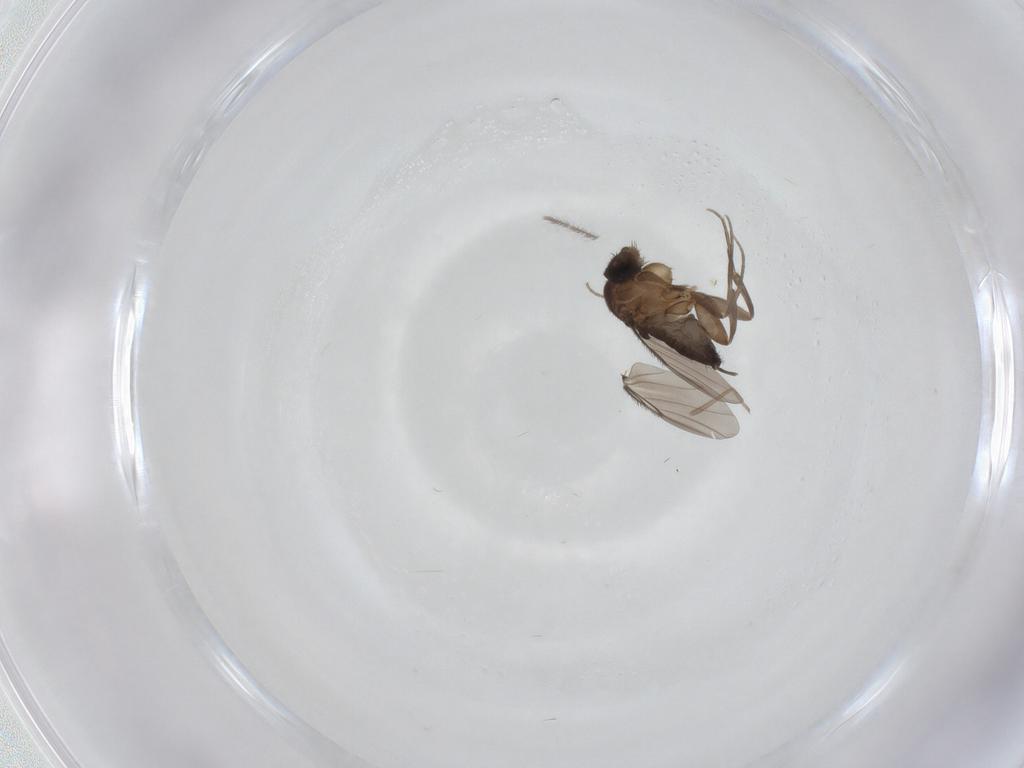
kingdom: Animalia
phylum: Arthropoda
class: Insecta
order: Diptera
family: Phoridae
